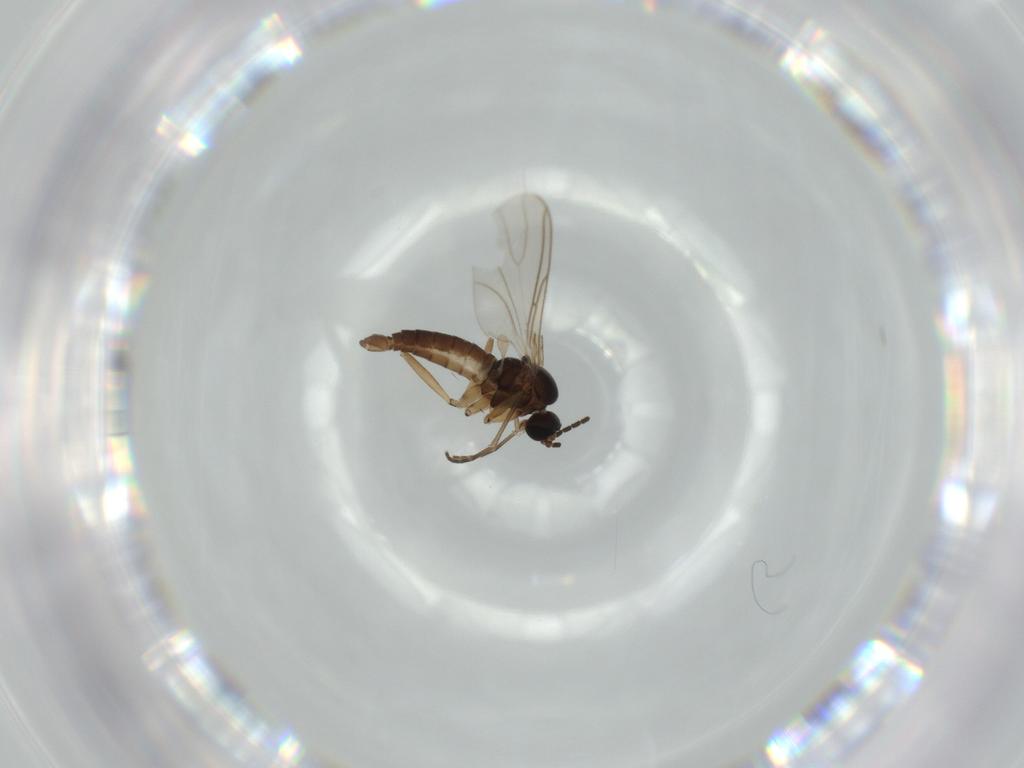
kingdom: Animalia
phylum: Arthropoda
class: Insecta
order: Diptera
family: Sciaridae
